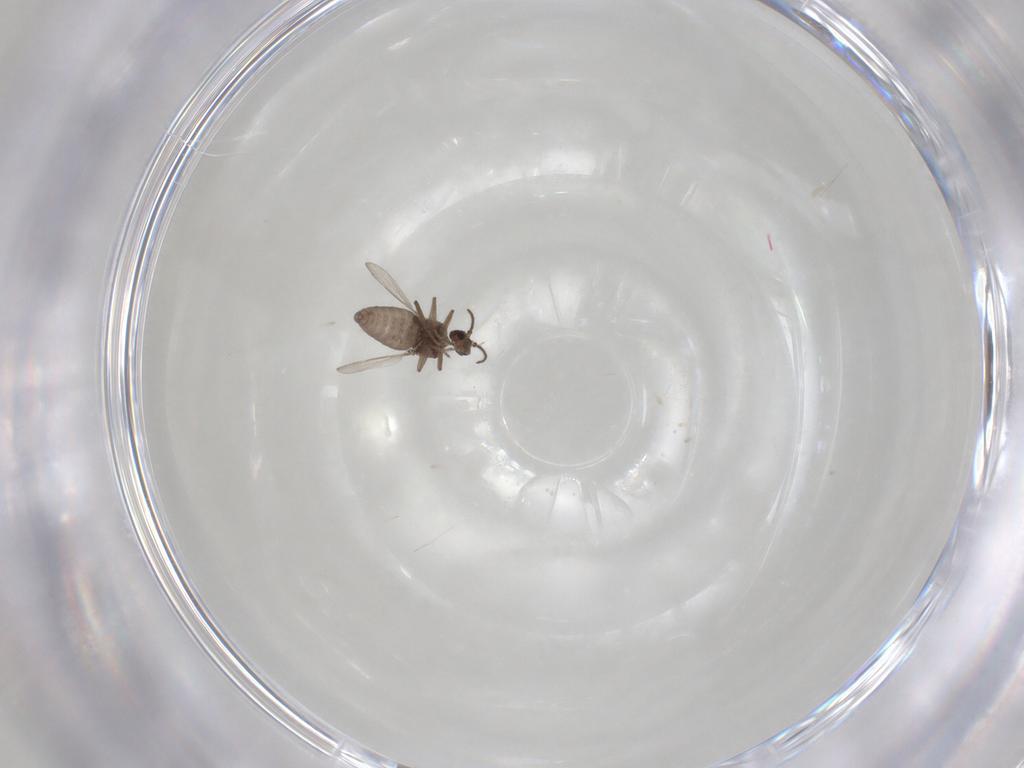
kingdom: Animalia
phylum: Arthropoda
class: Insecta
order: Diptera
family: Ceratopogonidae
